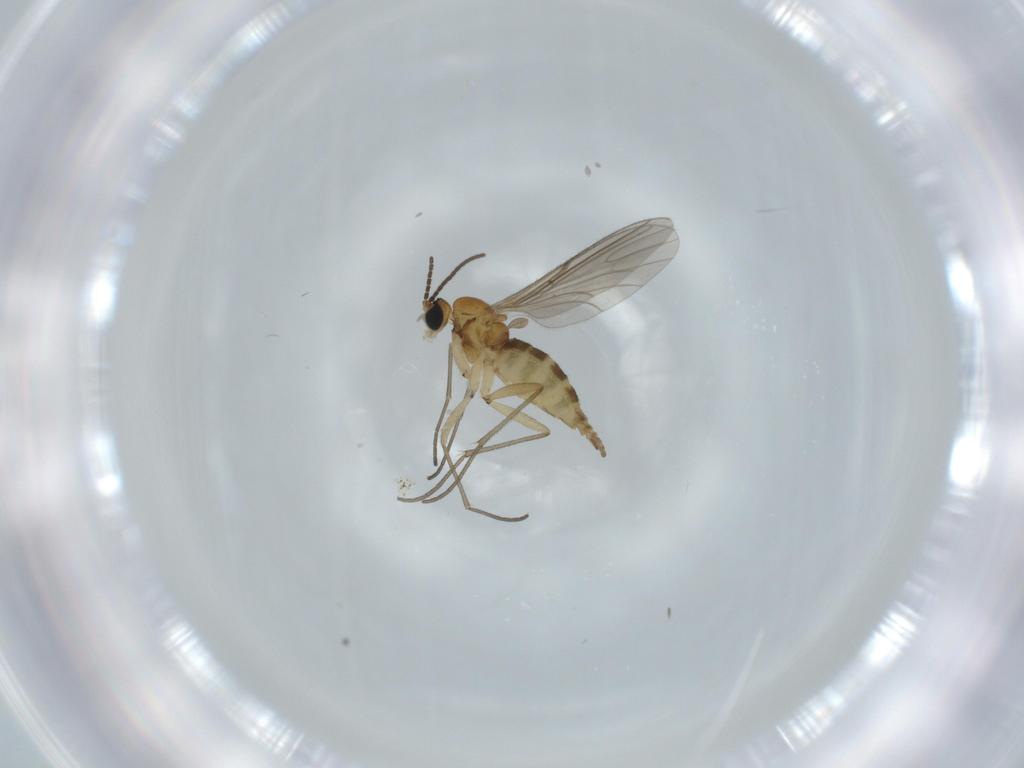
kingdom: Animalia
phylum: Arthropoda
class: Insecta
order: Diptera
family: Milichiidae
